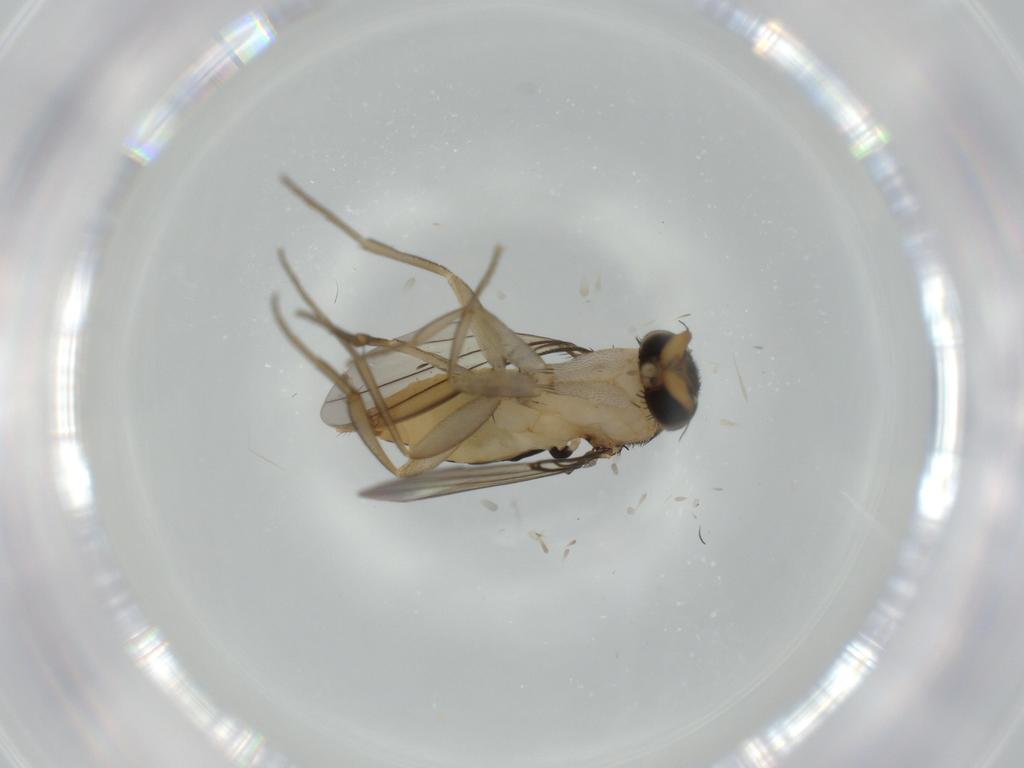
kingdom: Animalia
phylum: Arthropoda
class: Insecta
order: Diptera
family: Phoridae
